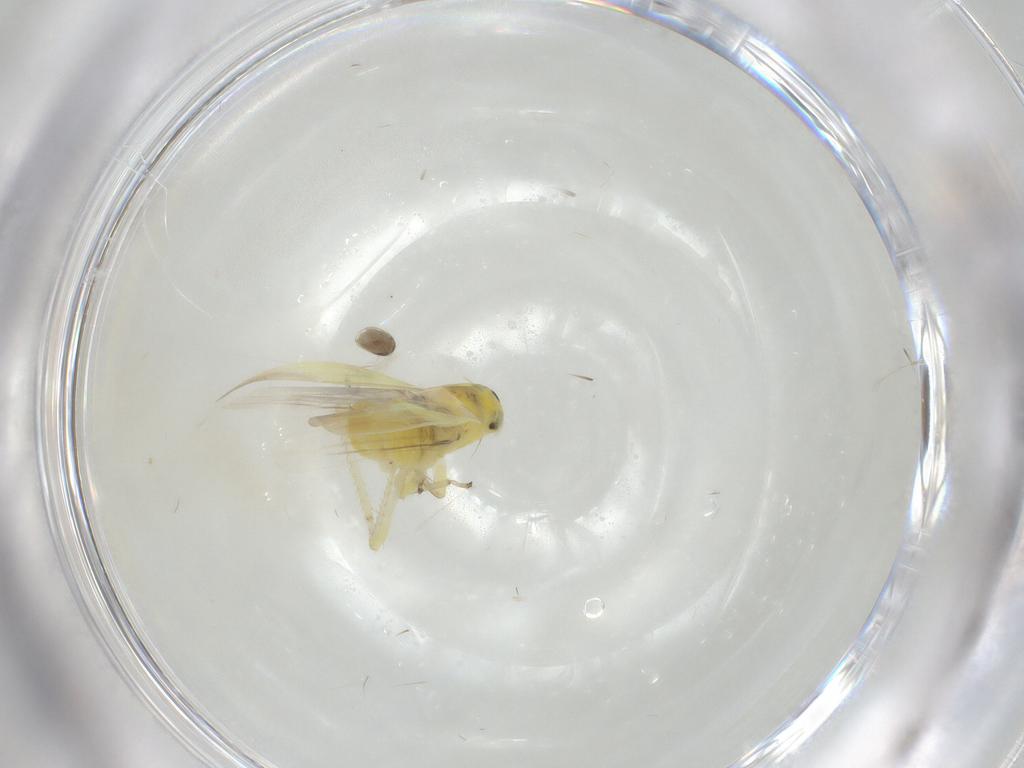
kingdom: Animalia
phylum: Arthropoda
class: Insecta
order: Hemiptera
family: Cicadellidae
